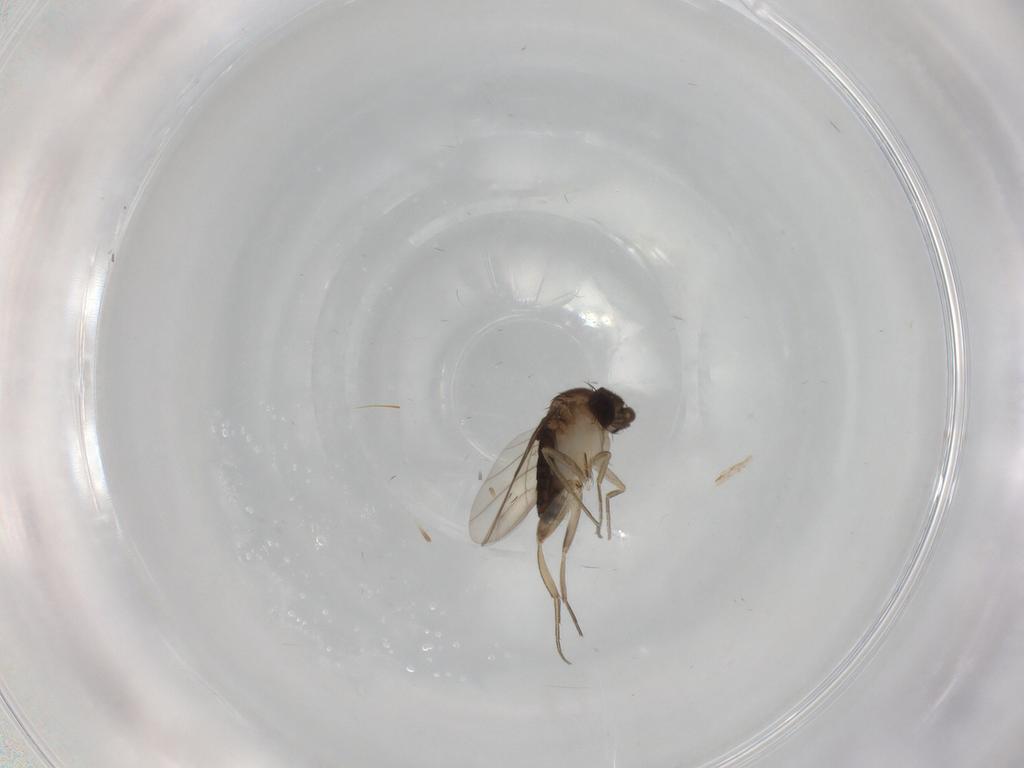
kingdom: Animalia
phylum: Arthropoda
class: Insecta
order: Diptera
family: Phoridae
